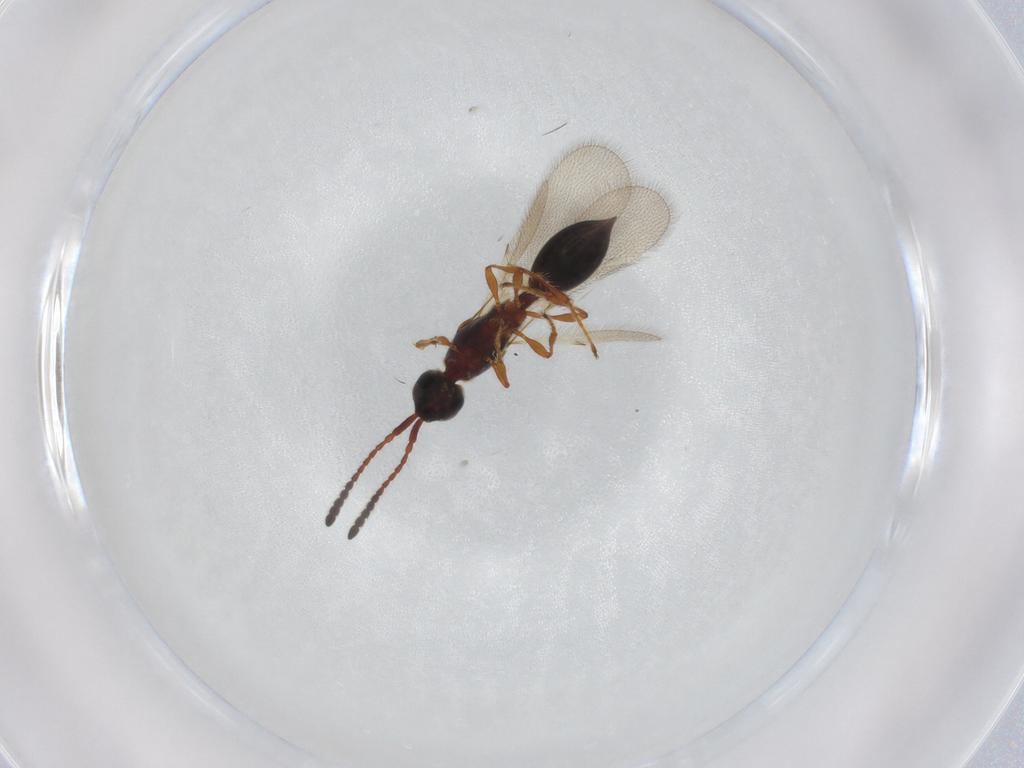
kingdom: Animalia
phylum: Arthropoda
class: Insecta
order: Hymenoptera
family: Diapriidae
